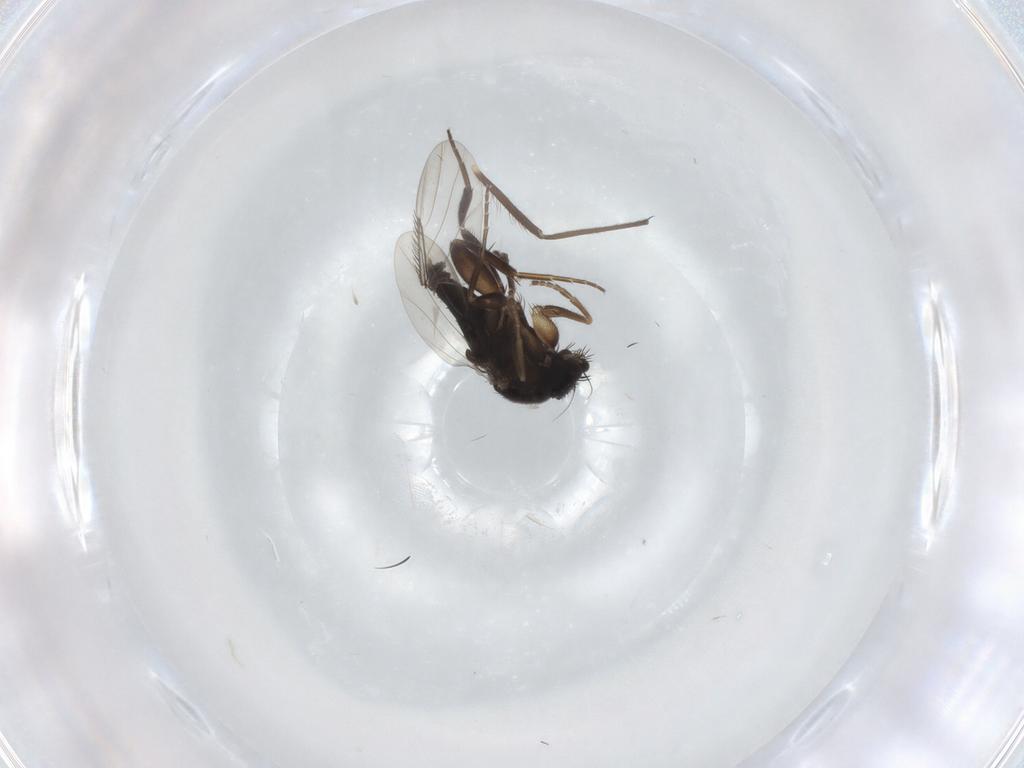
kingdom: Animalia
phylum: Arthropoda
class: Insecta
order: Diptera
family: Phoridae
